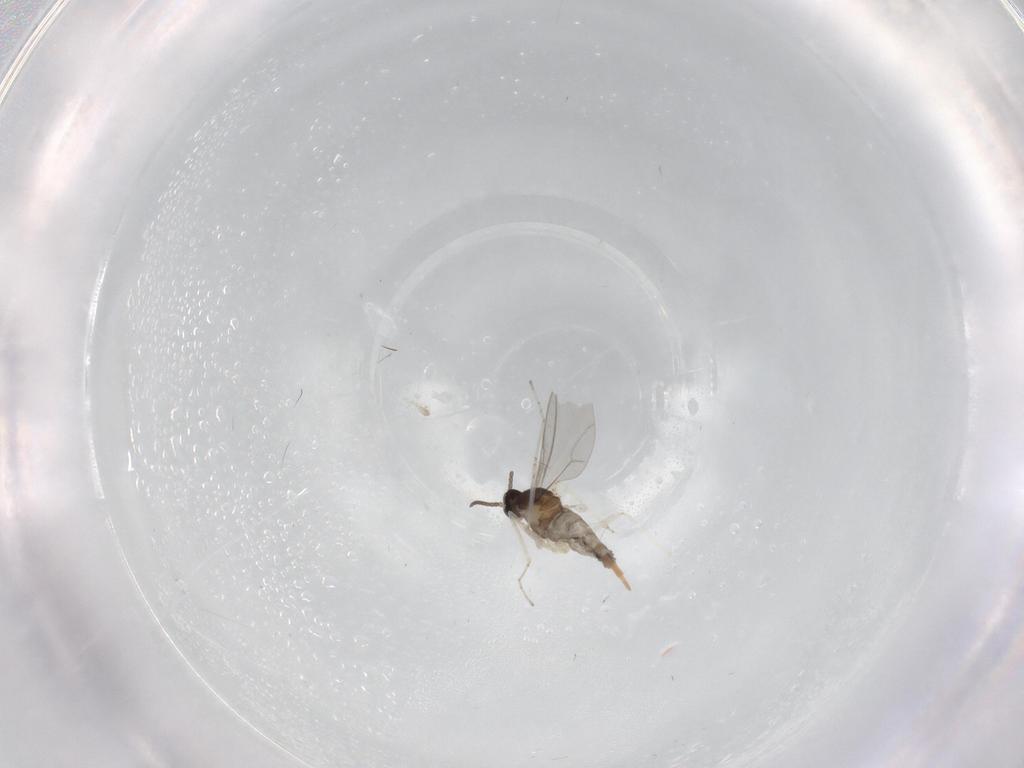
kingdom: Animalia
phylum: Arthropoda
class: Insecta
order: Diptera
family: Cecidomyiidae
